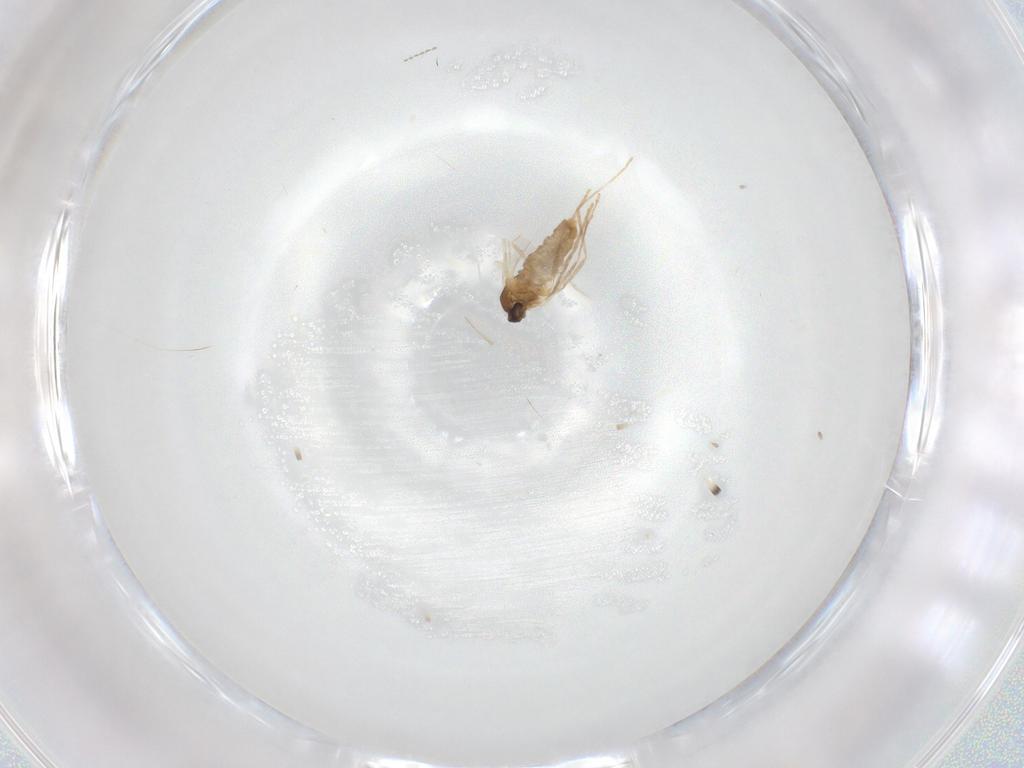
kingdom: Animalia
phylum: Arthropoda
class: Insecta
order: Diptera
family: Cecidomyiidae
